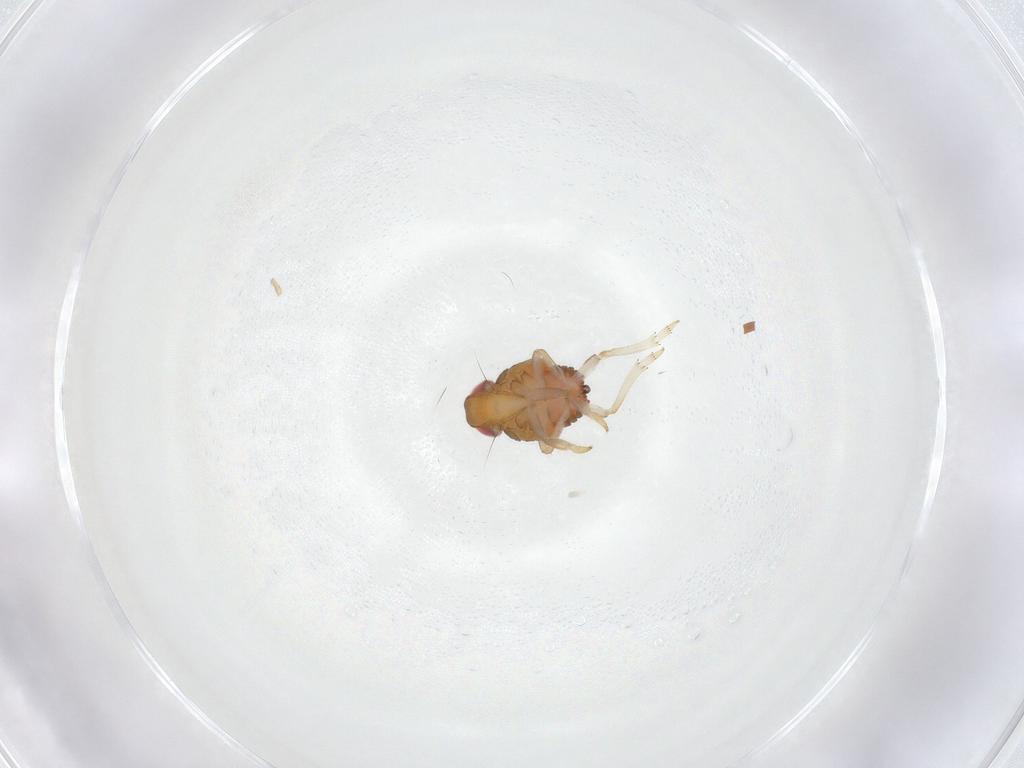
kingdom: Animalia
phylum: Arthropoda
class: Insecta
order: Hemiptera
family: Issidae
